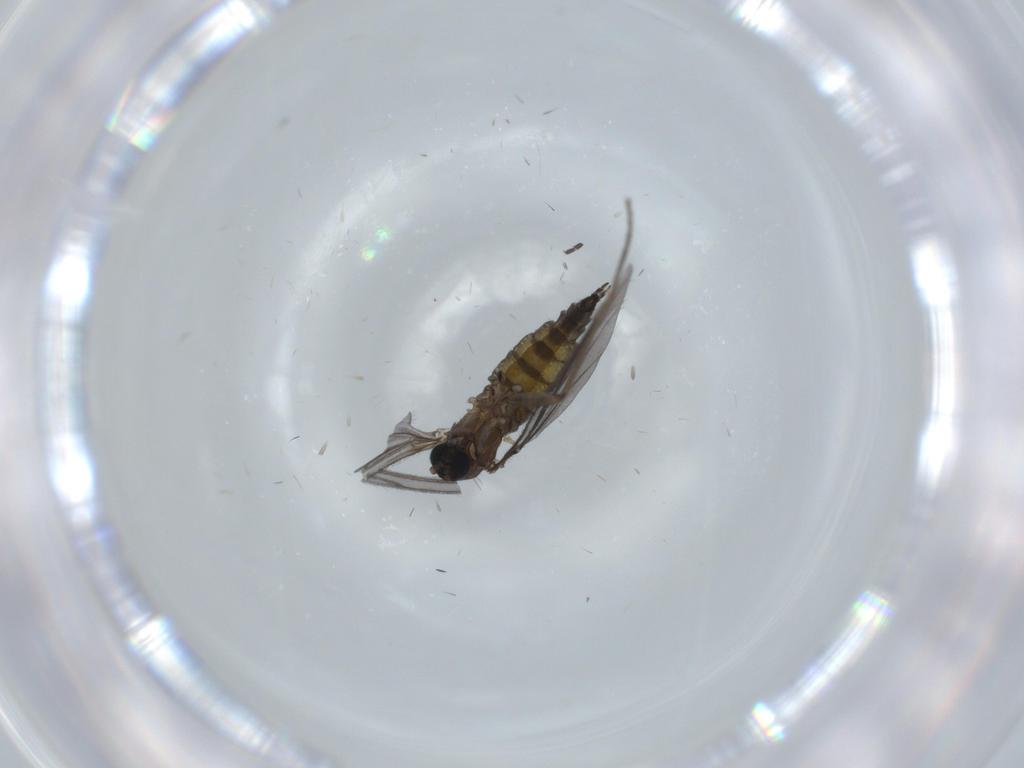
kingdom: Animalia
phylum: Arthropoda
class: Insecta
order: Diptera
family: Sciaridae
